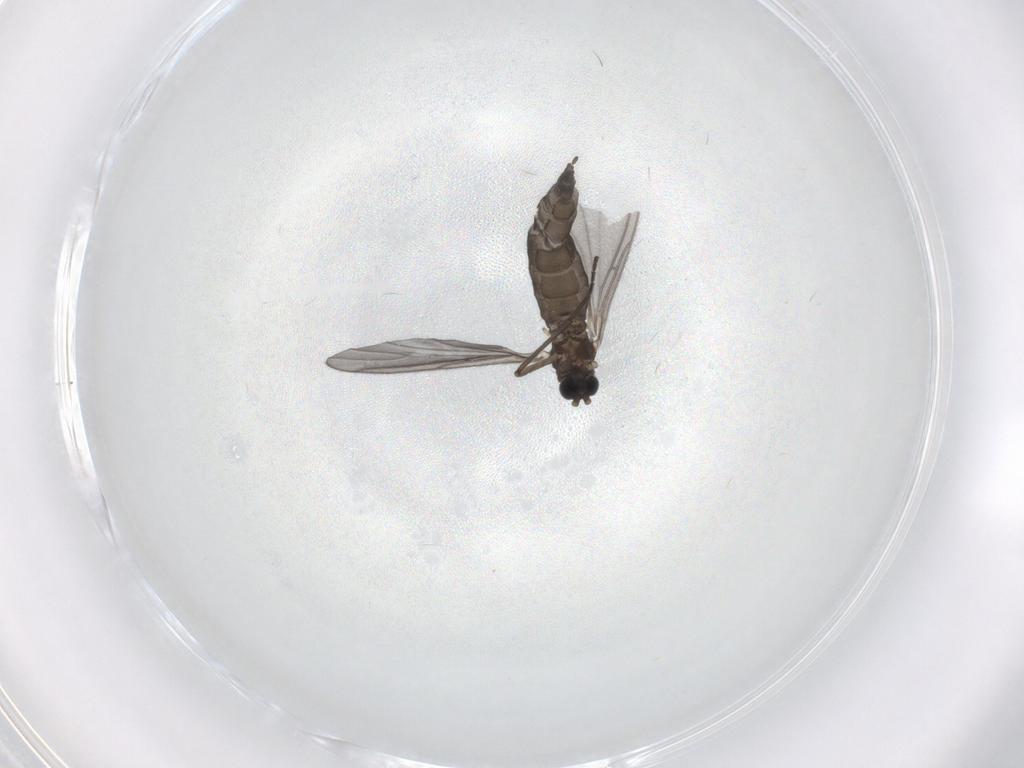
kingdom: Animalia
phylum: Arthropoda
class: Insecta
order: Diptera
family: Sciaridae
